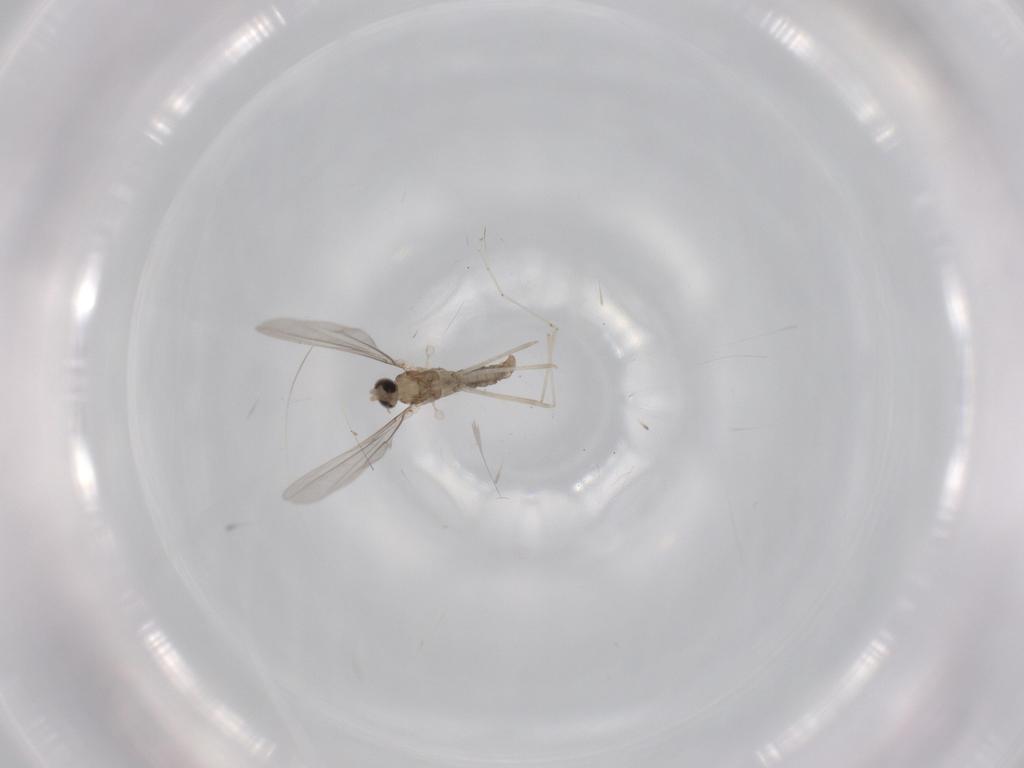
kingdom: Animalia
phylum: Arthropoda
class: Insecta
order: Diptera
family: Cecidomyiidae
